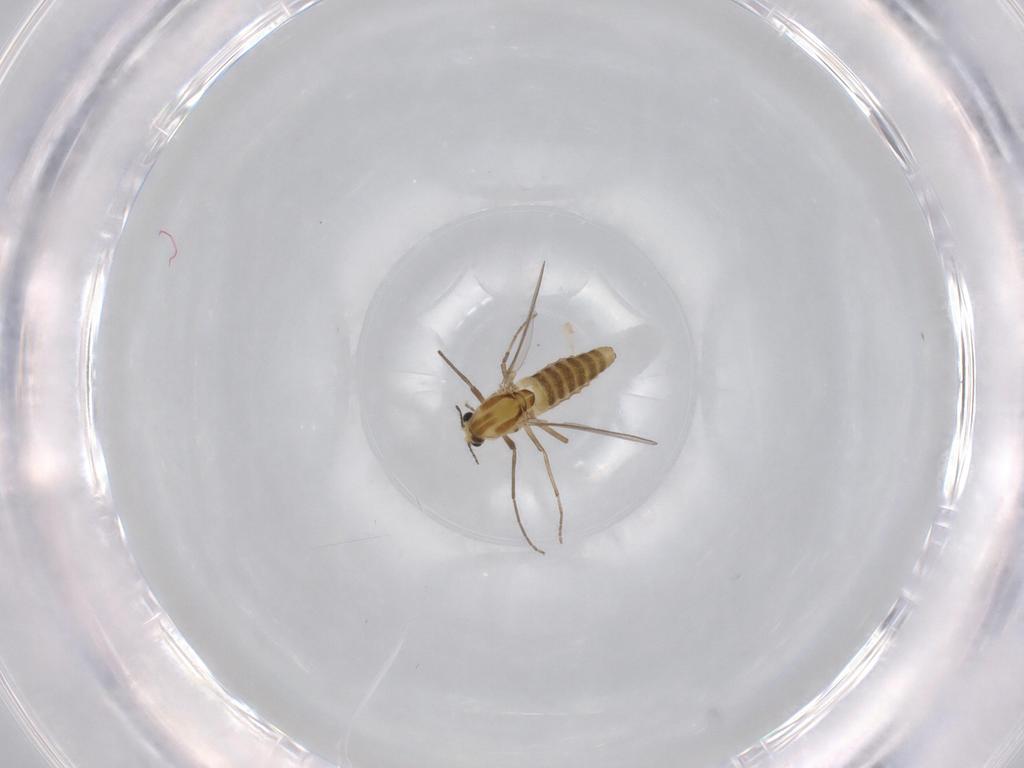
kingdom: Animalia
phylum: Arthropoda
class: Insecta
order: Diptera
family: Chironomidae
